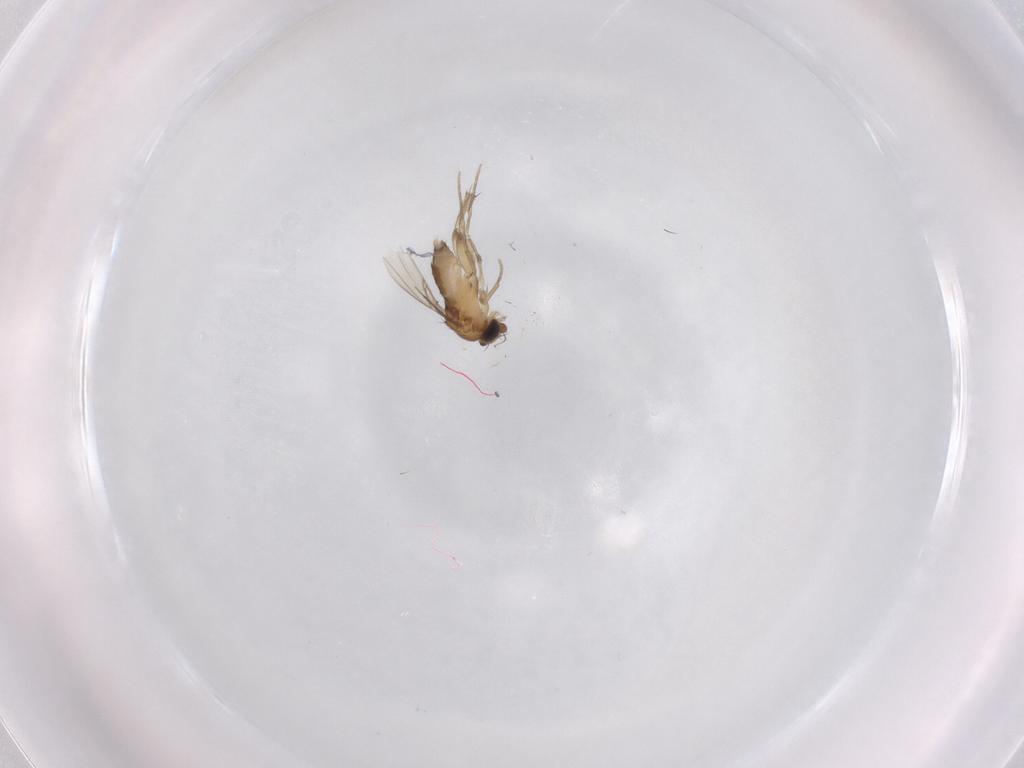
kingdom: Animalia
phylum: Arthropoda
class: Insecta
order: Diptera
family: Phoridae
